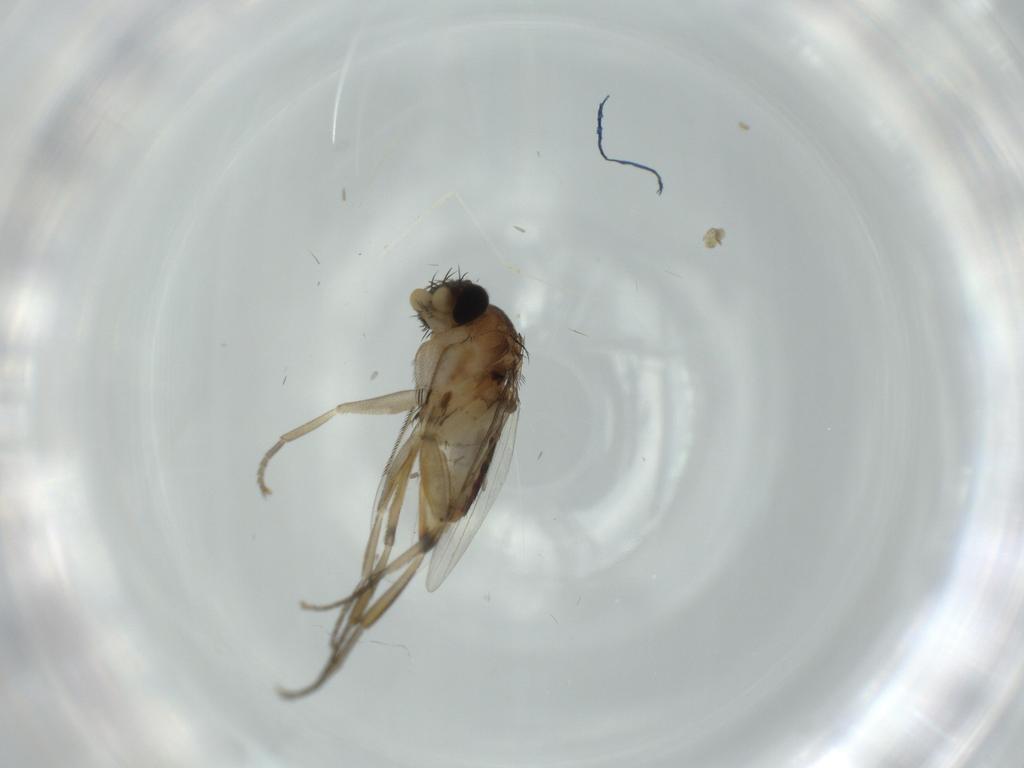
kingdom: Animalia
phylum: Arthropoda
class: Insecta
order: Diptera
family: Phoridae
